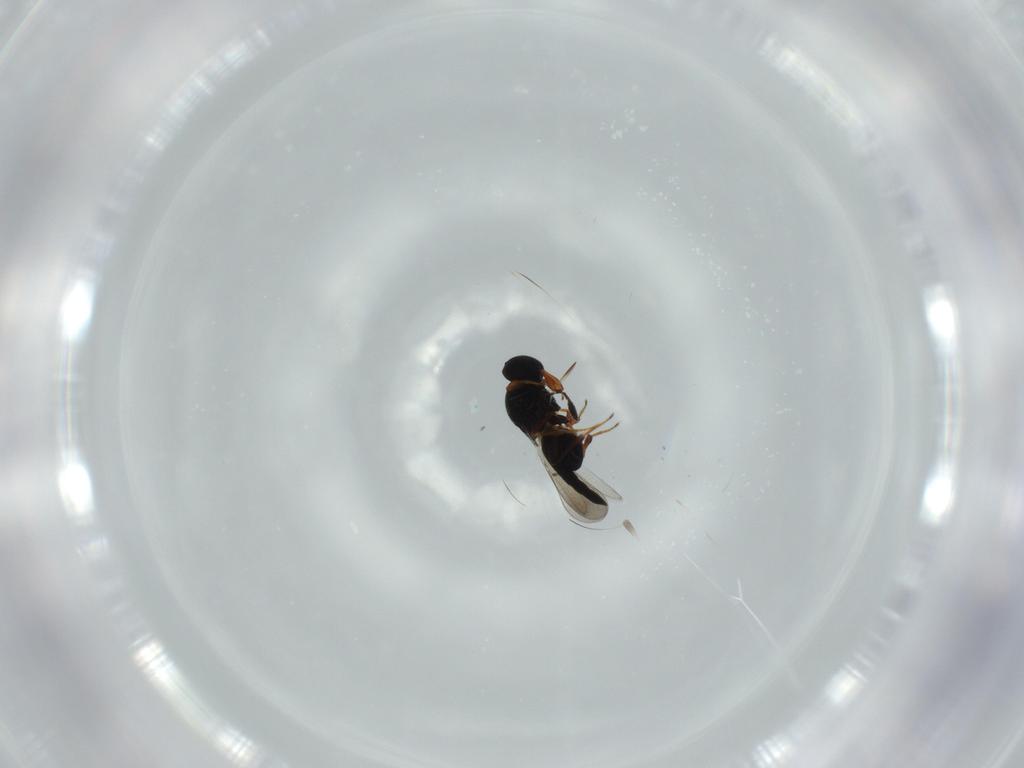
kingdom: Animalia
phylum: Arthropoda
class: Insecta
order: Hymenoptera
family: Platygastridae
